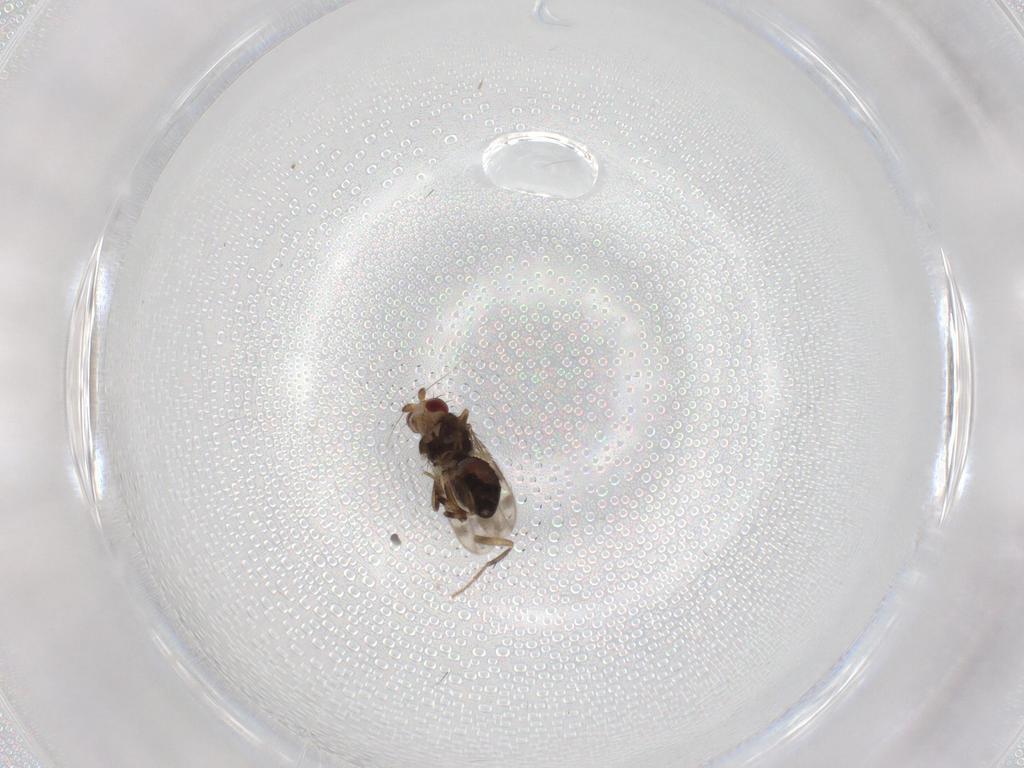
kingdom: Animalia
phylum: Arthropoda
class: Insecta
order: Diptera
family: Sphaeroceridae
